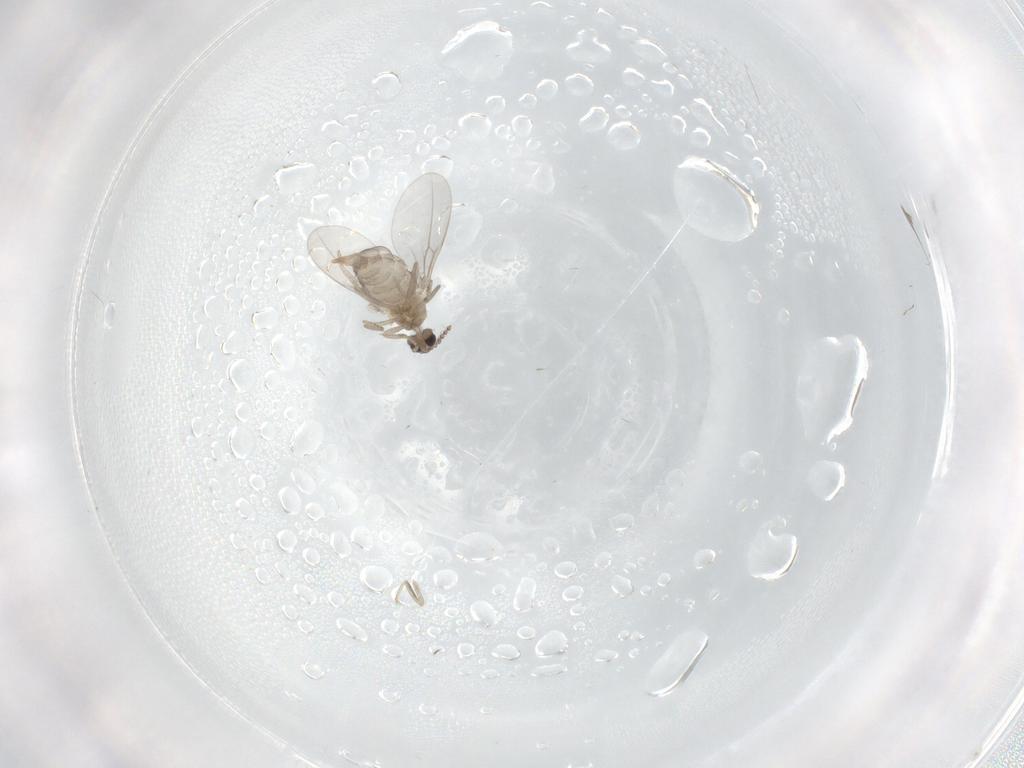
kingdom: Animalia
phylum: Arthropoda
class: Insecta
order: Diptera
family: Cecidomyiidae
